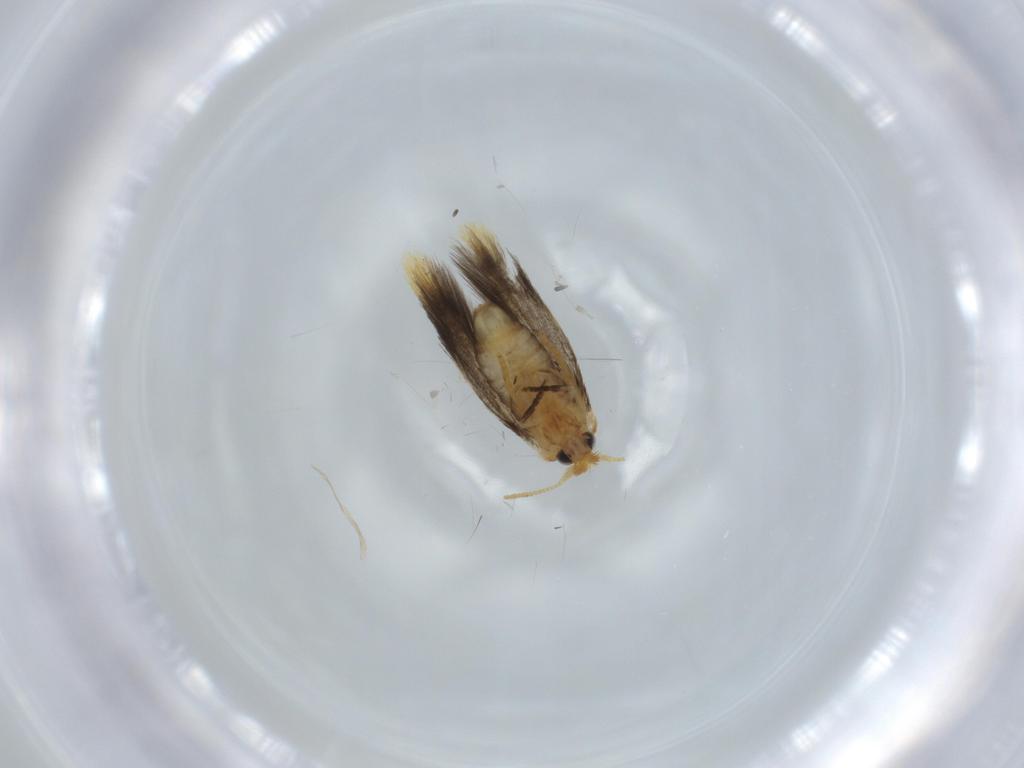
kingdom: Animalia
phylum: Arthropoda
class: Insecta
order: Lepidoptera
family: Copromorphidae
